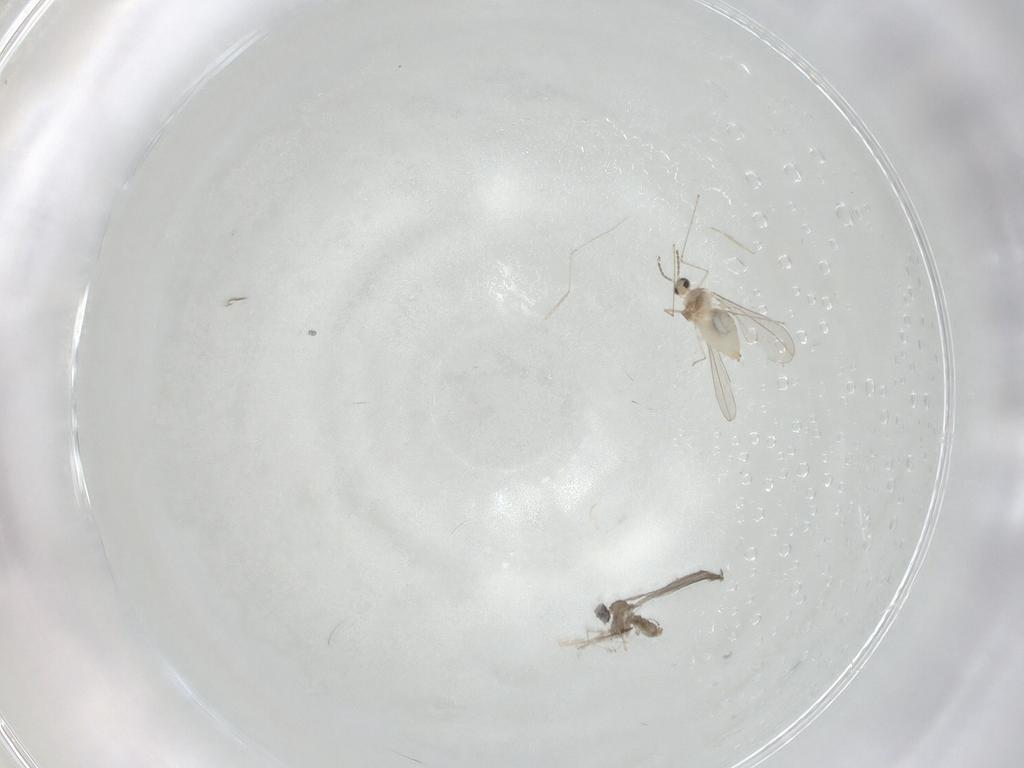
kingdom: Animalia
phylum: Arthropoda
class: Insecta
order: Diptera
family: Cecidomyiidae
